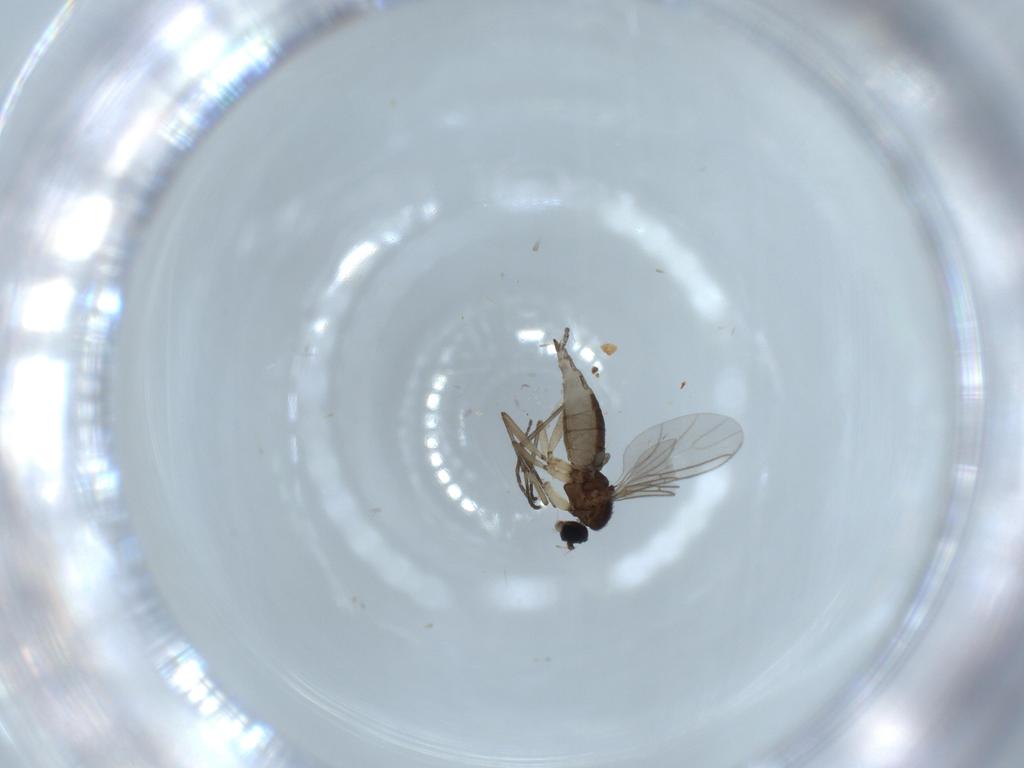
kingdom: Animalia
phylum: Arthropoda
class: Insecta
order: Diptera
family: Sciaridae
